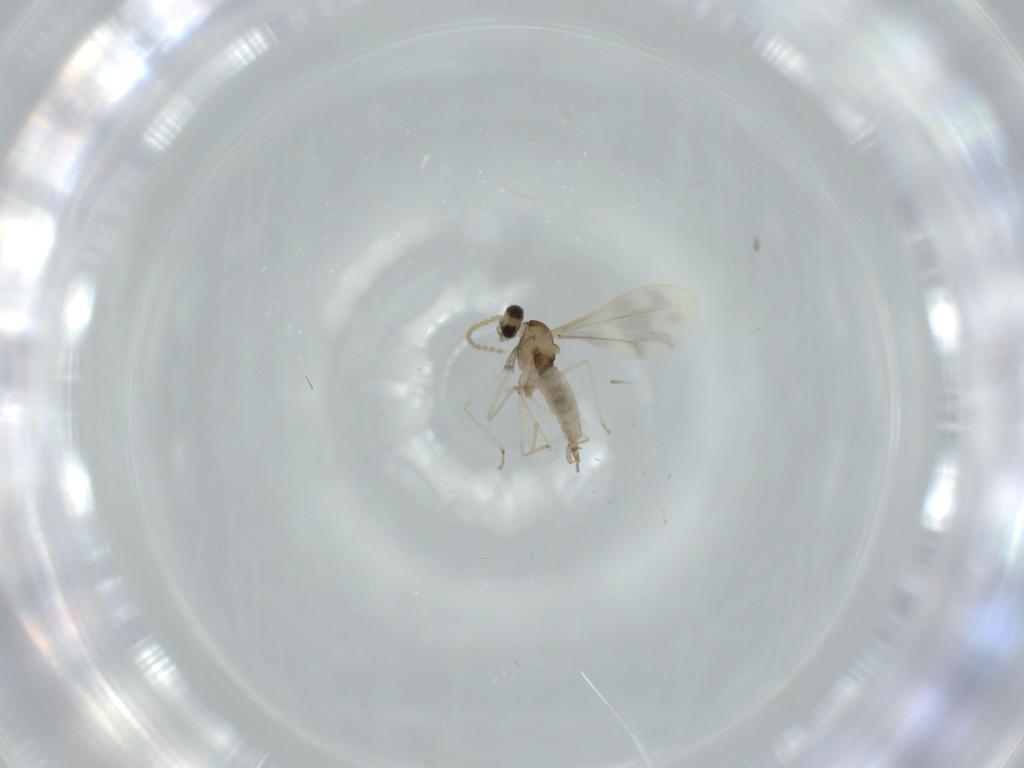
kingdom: Animalia
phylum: Arthropoda
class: Insecta
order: Diptera
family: Cecidomyiidae
